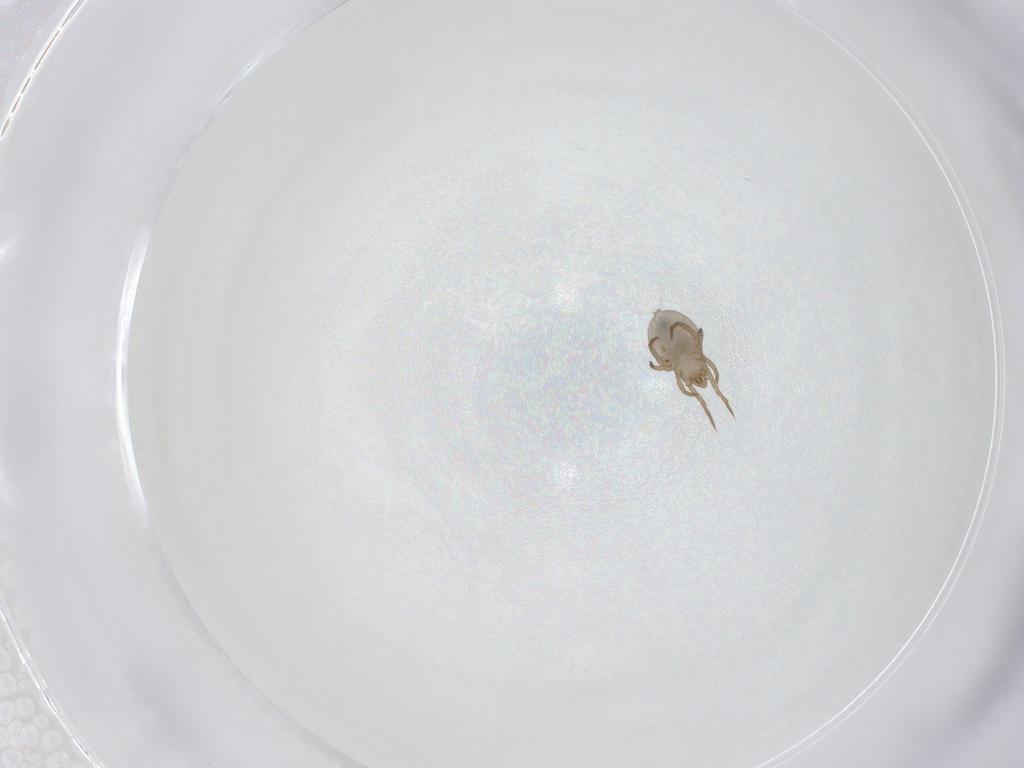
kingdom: Animalia
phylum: Arthropoda
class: Arachnida
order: Sarcoptiformes
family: Ceratoppiidae
